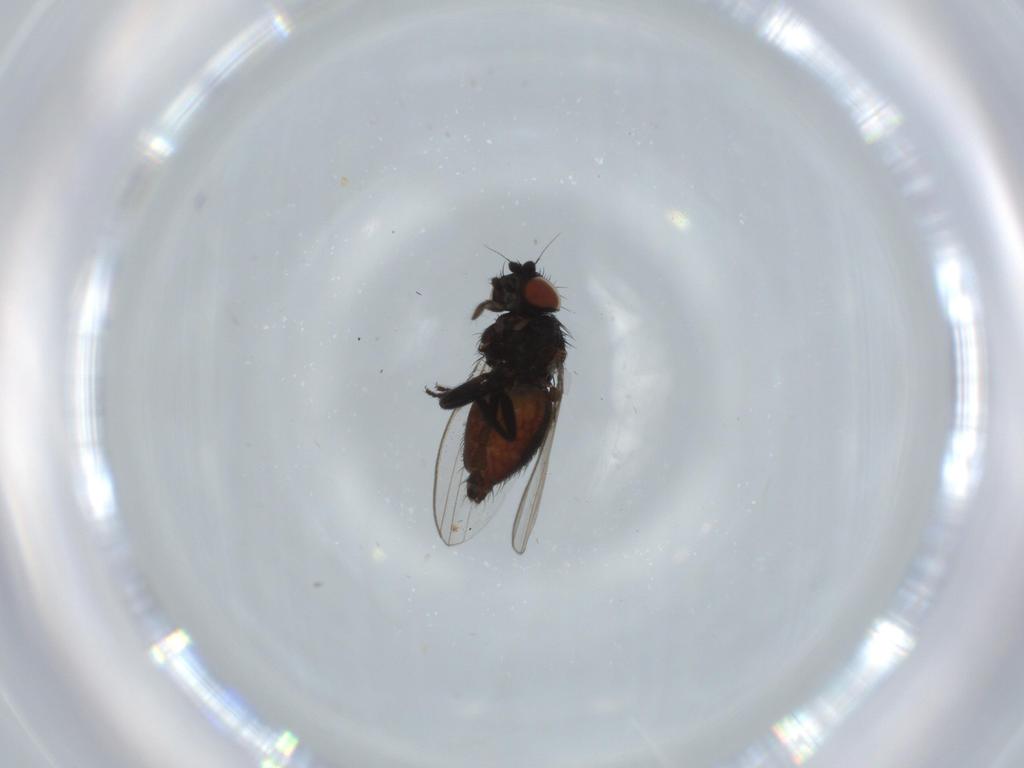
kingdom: Animalia
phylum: Arthropoda
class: Insecta
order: Diptera
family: Milichiidae
